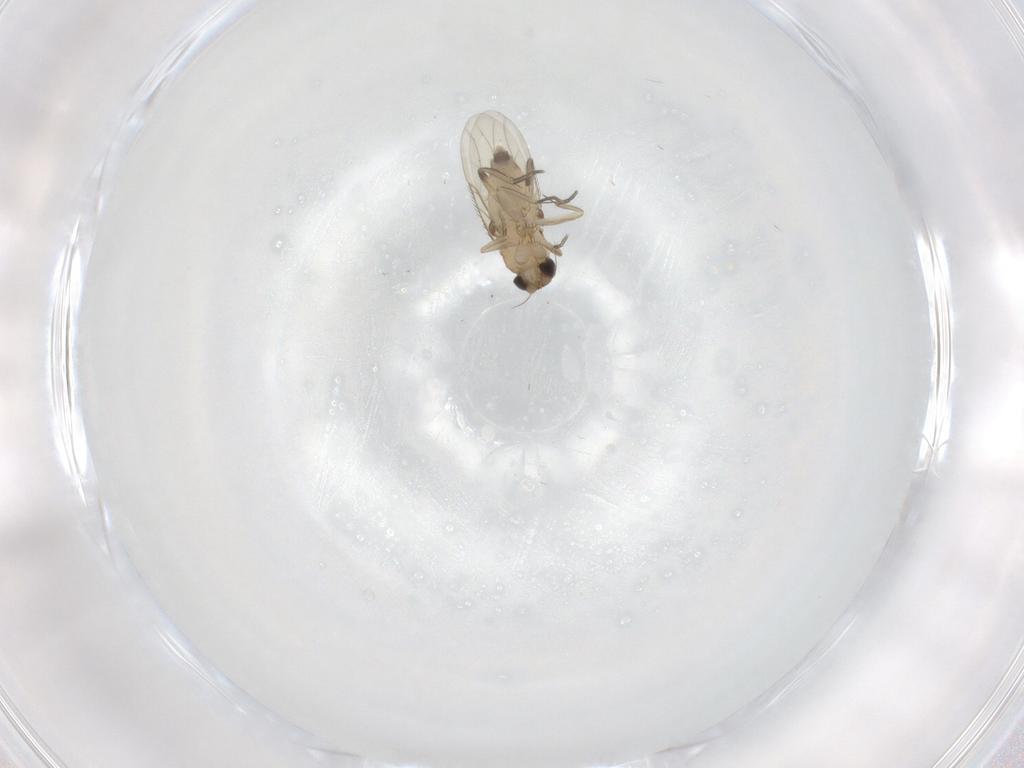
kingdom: Animalia
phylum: Arthropoda
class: Insecta
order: Diptera
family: Phoridae
